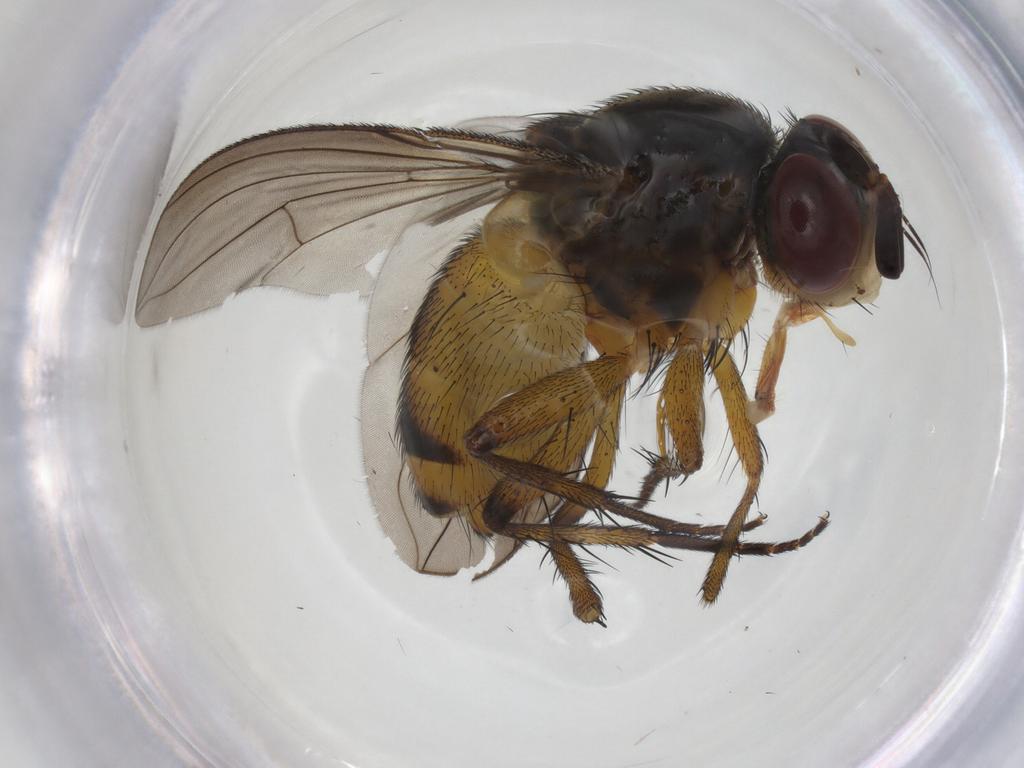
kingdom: Animalia
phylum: Arthropoda
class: Insecta
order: Diptera
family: Tachinidae
